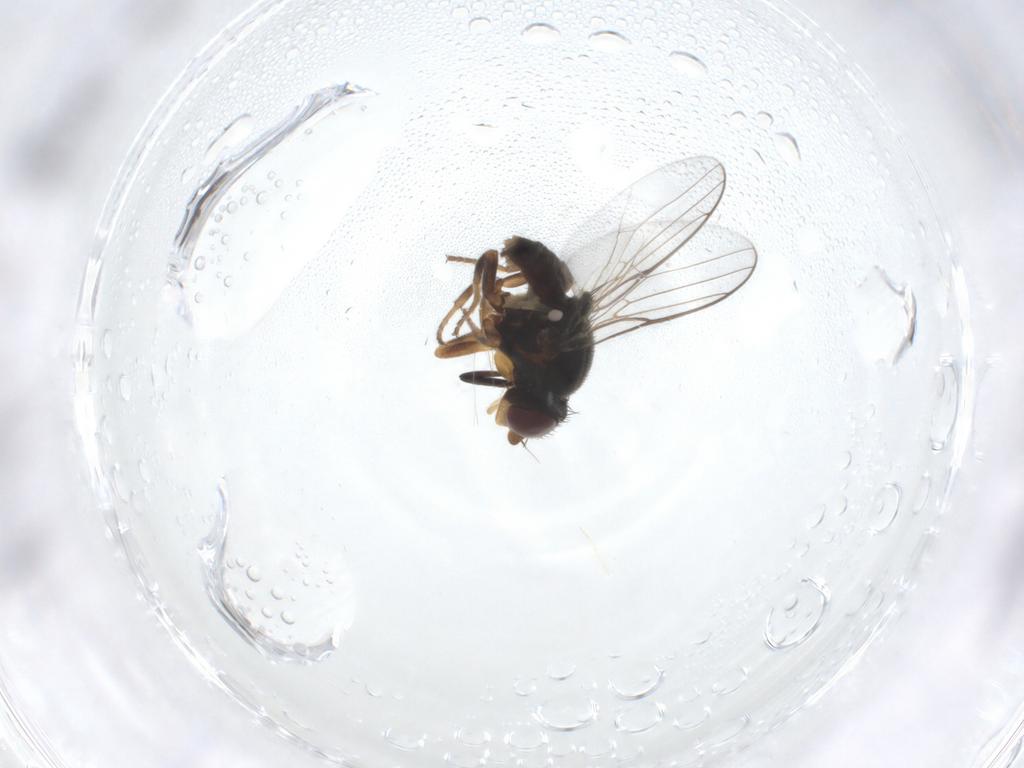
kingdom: Animalia
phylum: Arthropoda
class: Insecta
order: Diptera
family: Chloropidae
